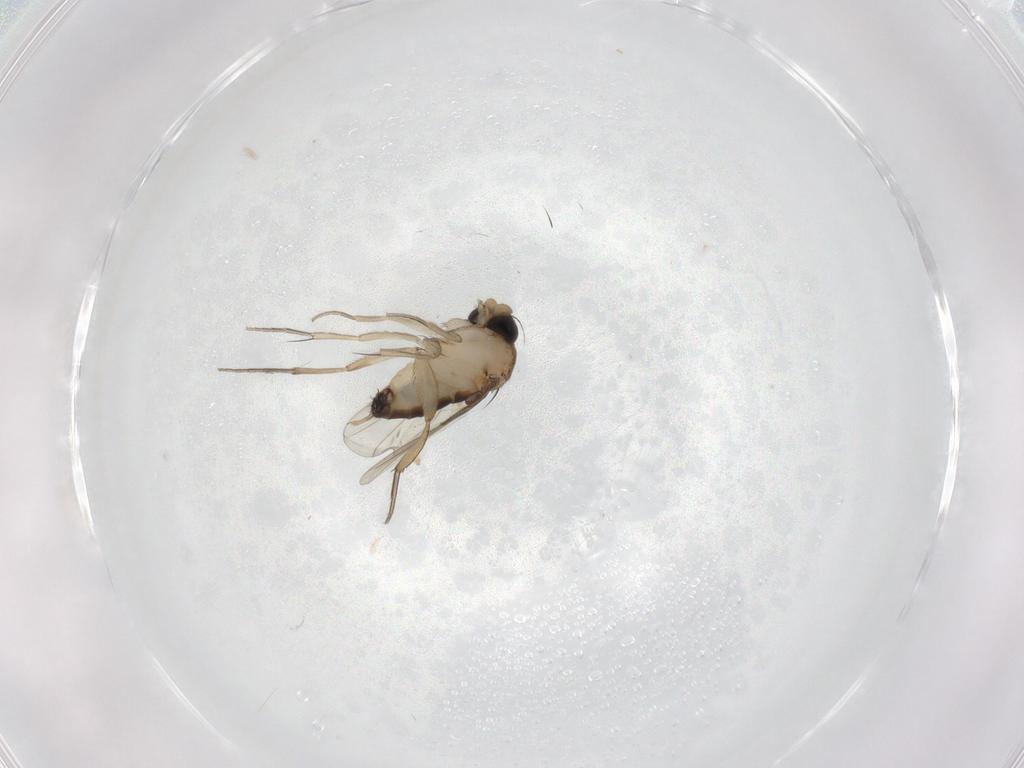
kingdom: Animalia
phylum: Arthropoda
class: Insecta
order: Diptera
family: Phoridae
